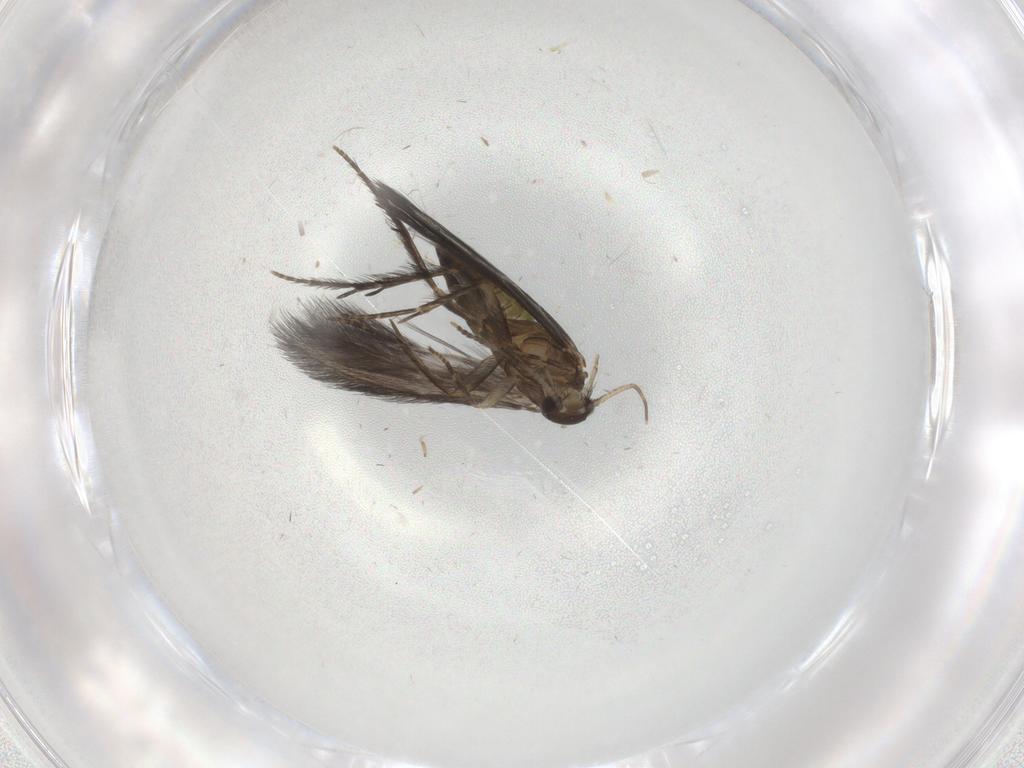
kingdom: Animalia
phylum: Arthropoda
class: Insecta
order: Trichoptera
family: Hydroptilidae
